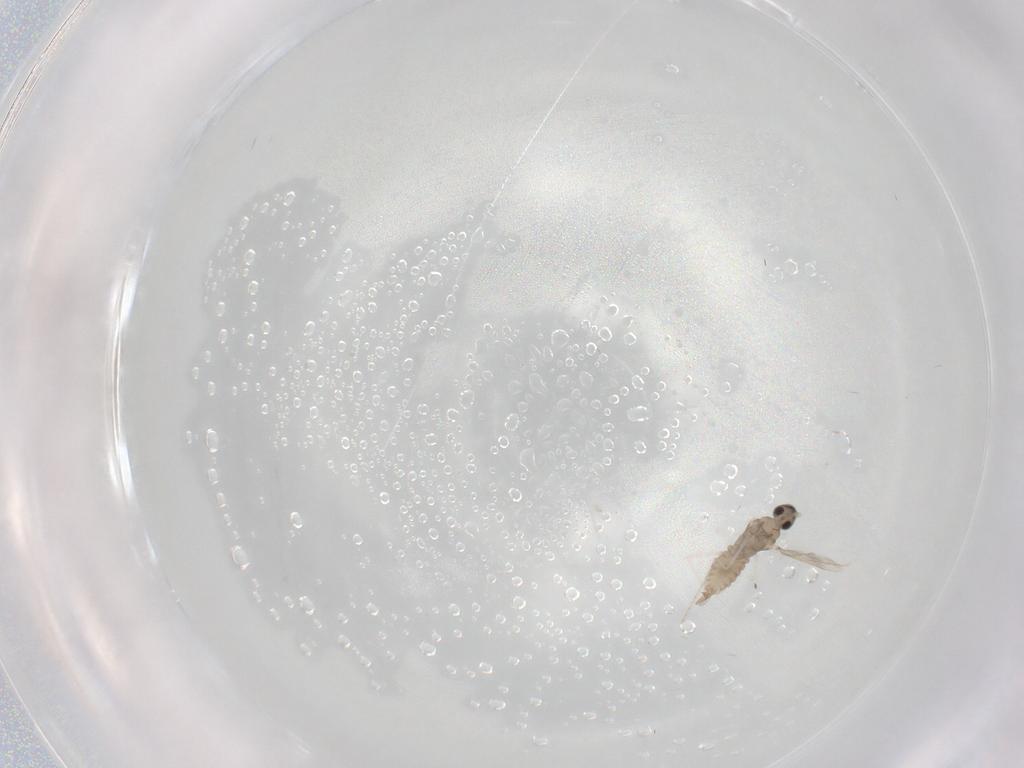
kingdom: Animalia
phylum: Arthropoda
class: Insecta
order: Diptera
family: Cecidomyiidae
